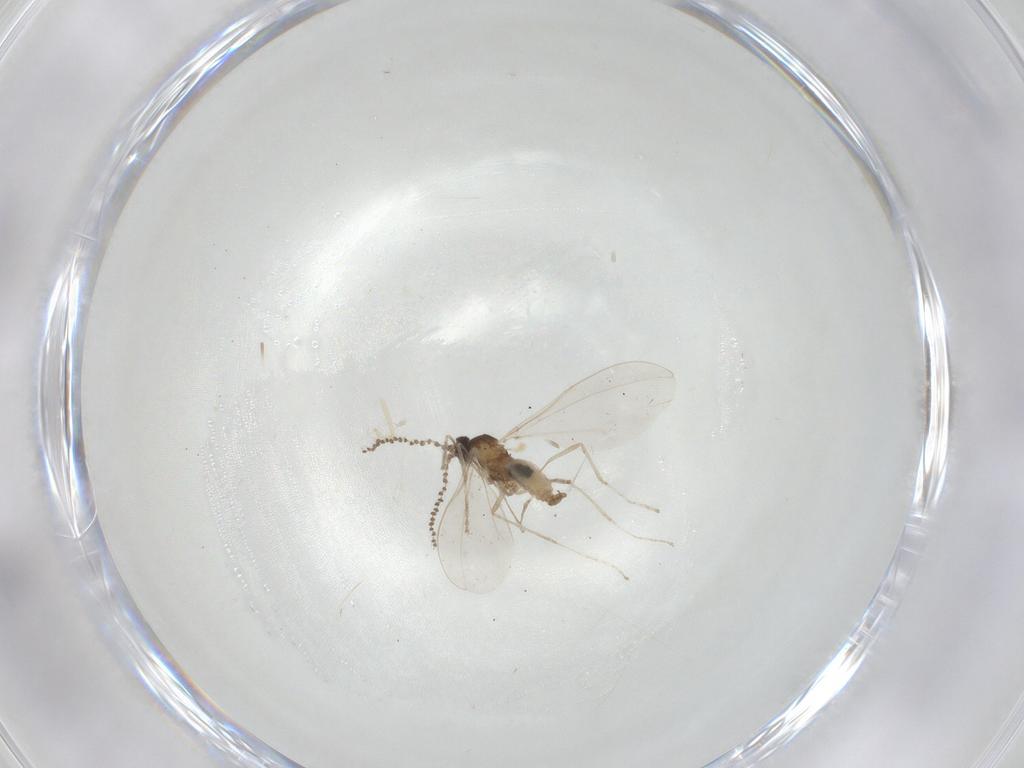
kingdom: Animalia
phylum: Arthropoda
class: Insecta
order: Diptera
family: Cecidomyiidae
